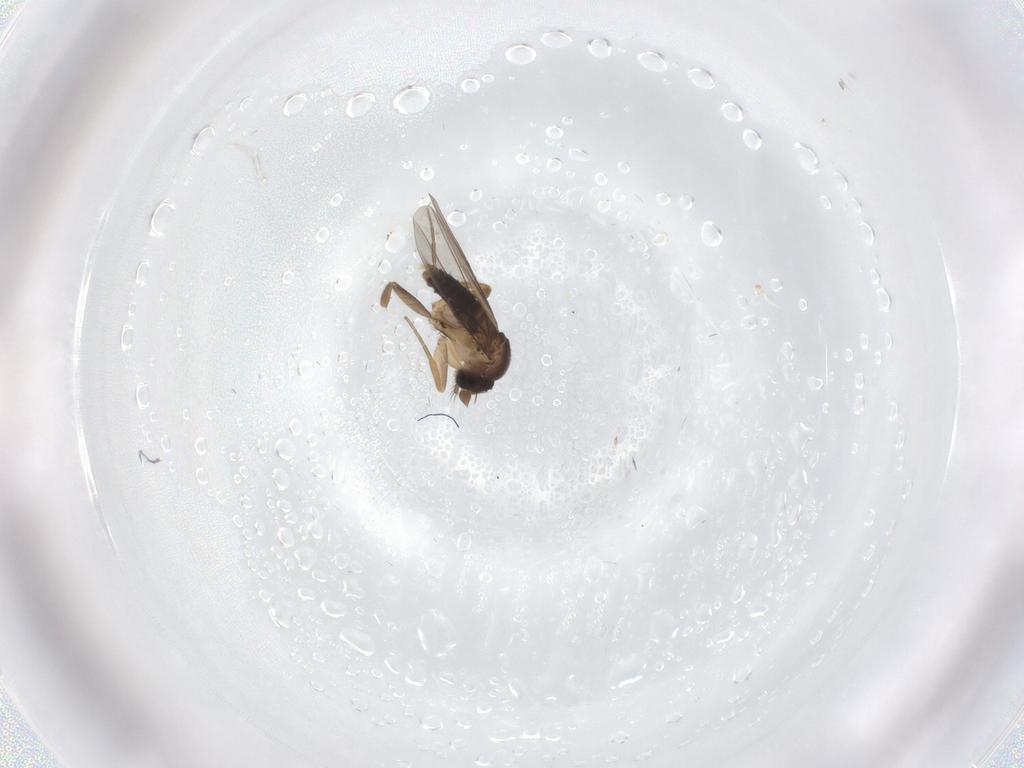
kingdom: Animalia
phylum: Arthropoda
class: Insecta
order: Diptera
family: Phoridae
